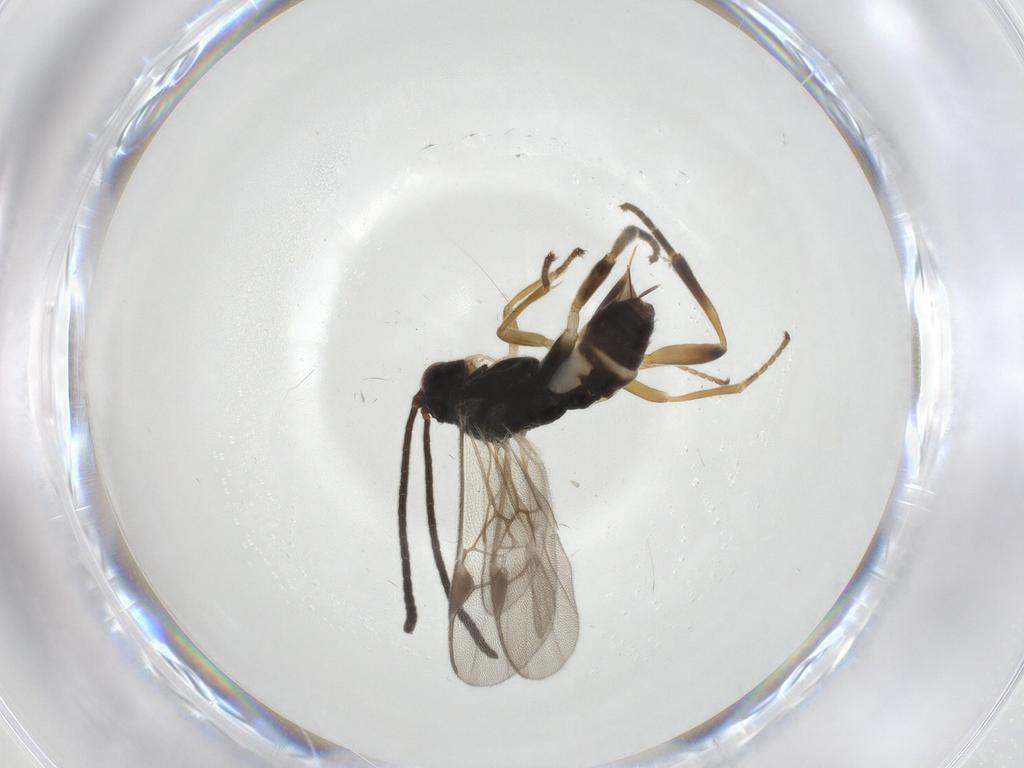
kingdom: Animalia
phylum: Arthropoda
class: Insecta
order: Hymenoptera
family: Braconidae
